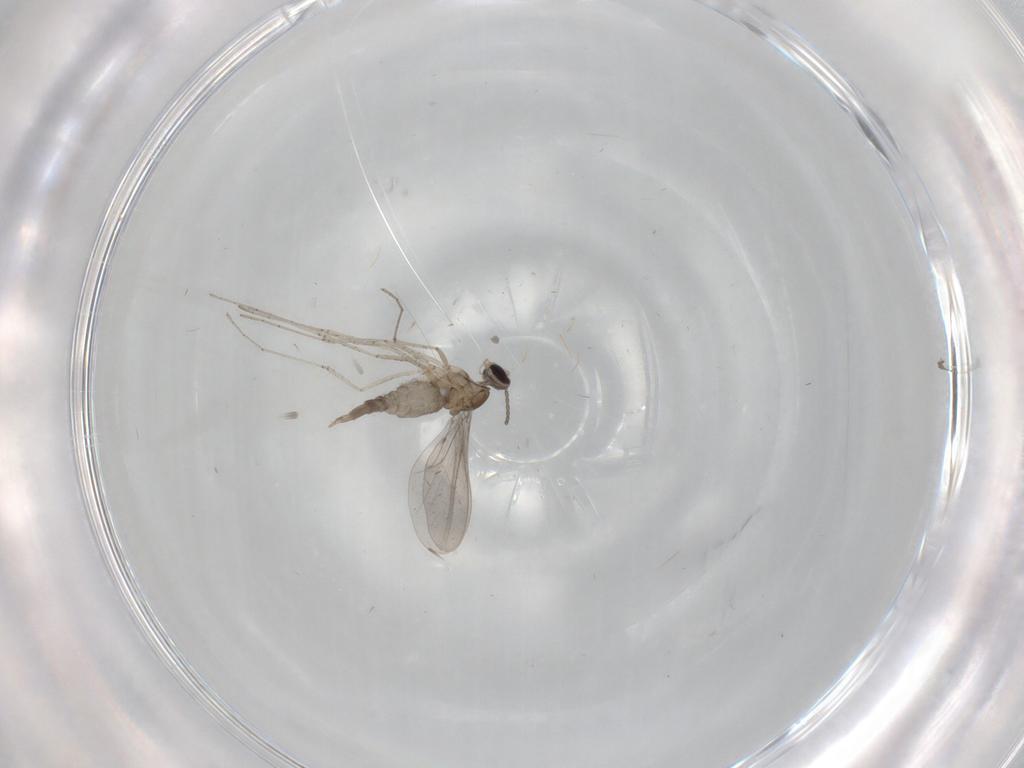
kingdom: Animalia
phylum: Arthropoda
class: Insecta
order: Diptera
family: Cecidomyiidae
